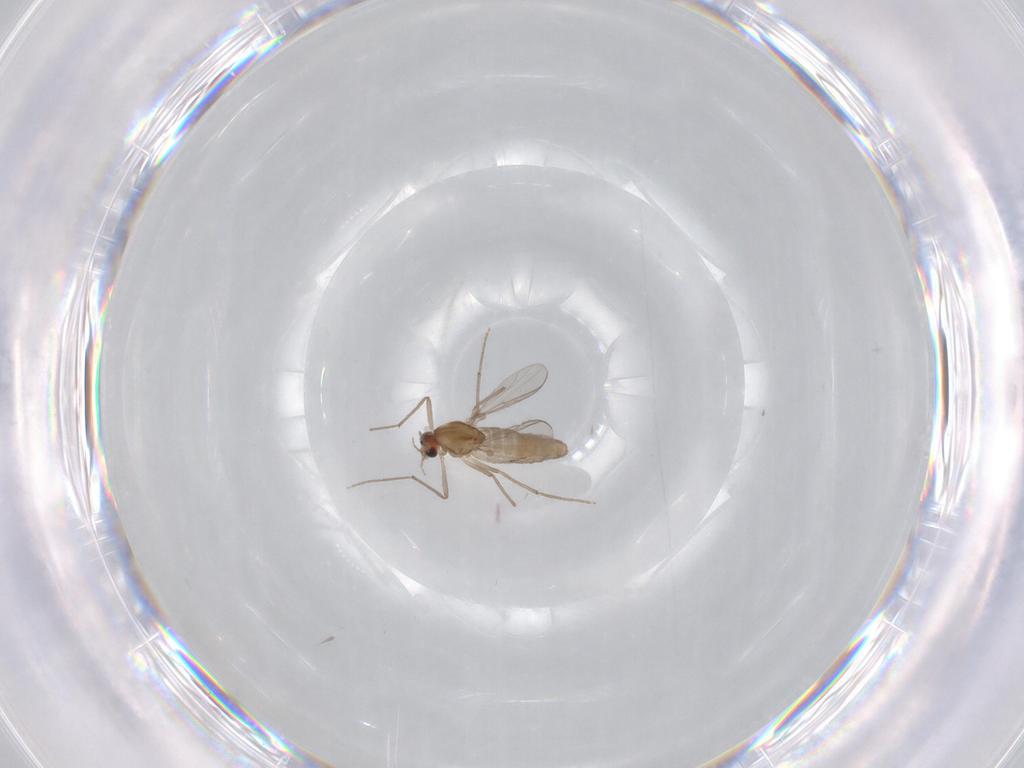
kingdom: Animalia
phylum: Arthropoda
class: Insecta
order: Diptera
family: Chironomidae
